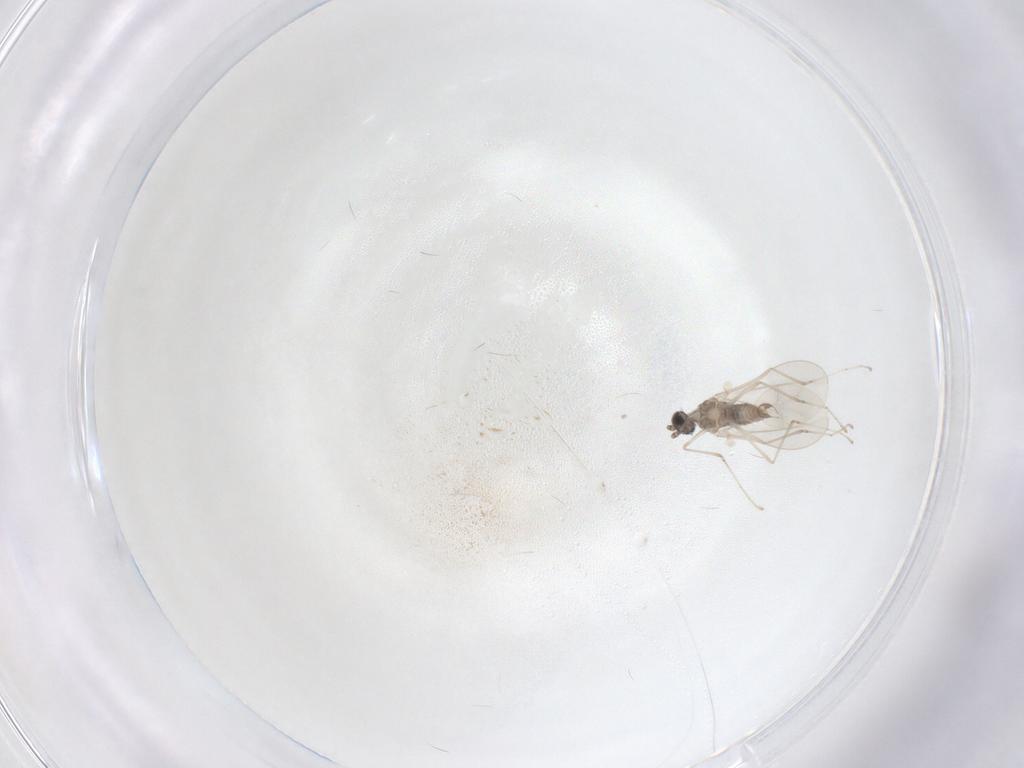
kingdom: Animalia
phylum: Arthropoda
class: Insecta
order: Diptera
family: Cecidomyiidae
